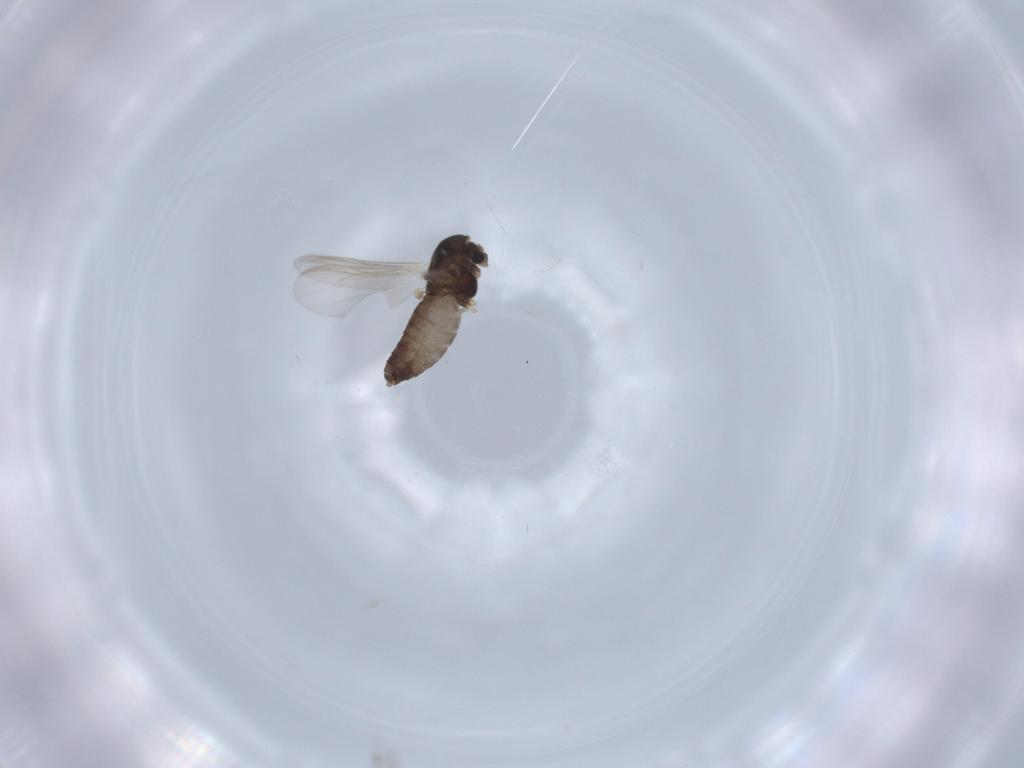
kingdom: Animalia
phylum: Arthropoda
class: Insecta
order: Diptera
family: Chironomidae
